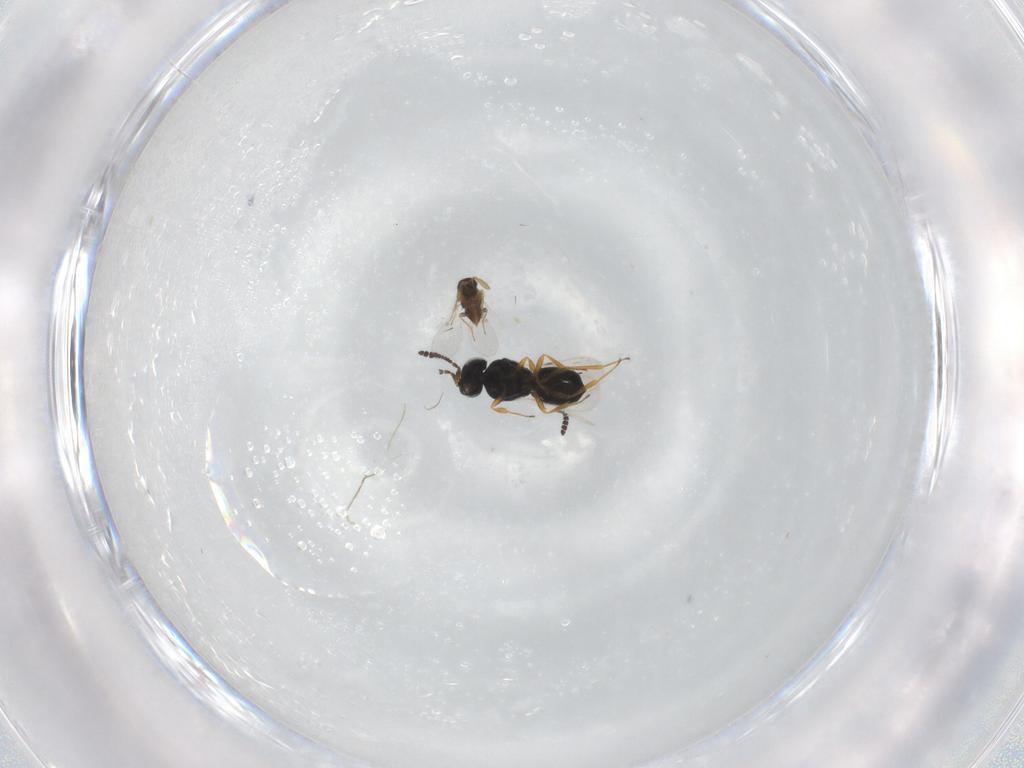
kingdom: Animalia
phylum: Arthropoda
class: Insecta
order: Hymenoptera
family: Scelionidae
